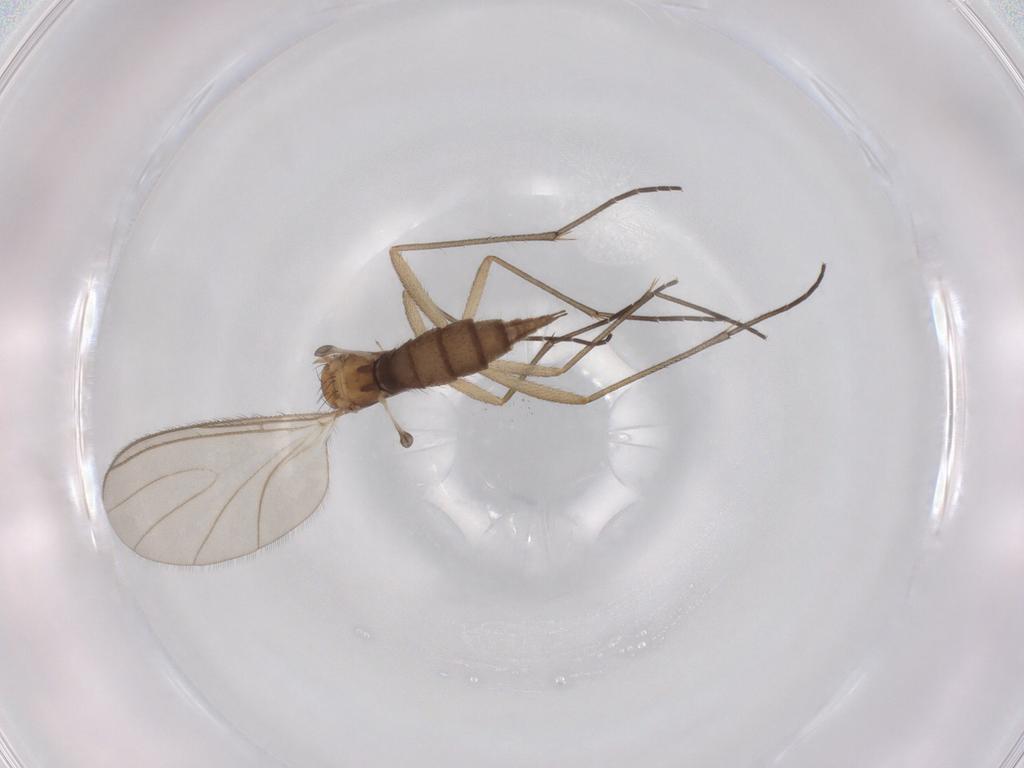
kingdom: Animalia
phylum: Arthropoda
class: Insecta
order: Diptera
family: Sciaridae
